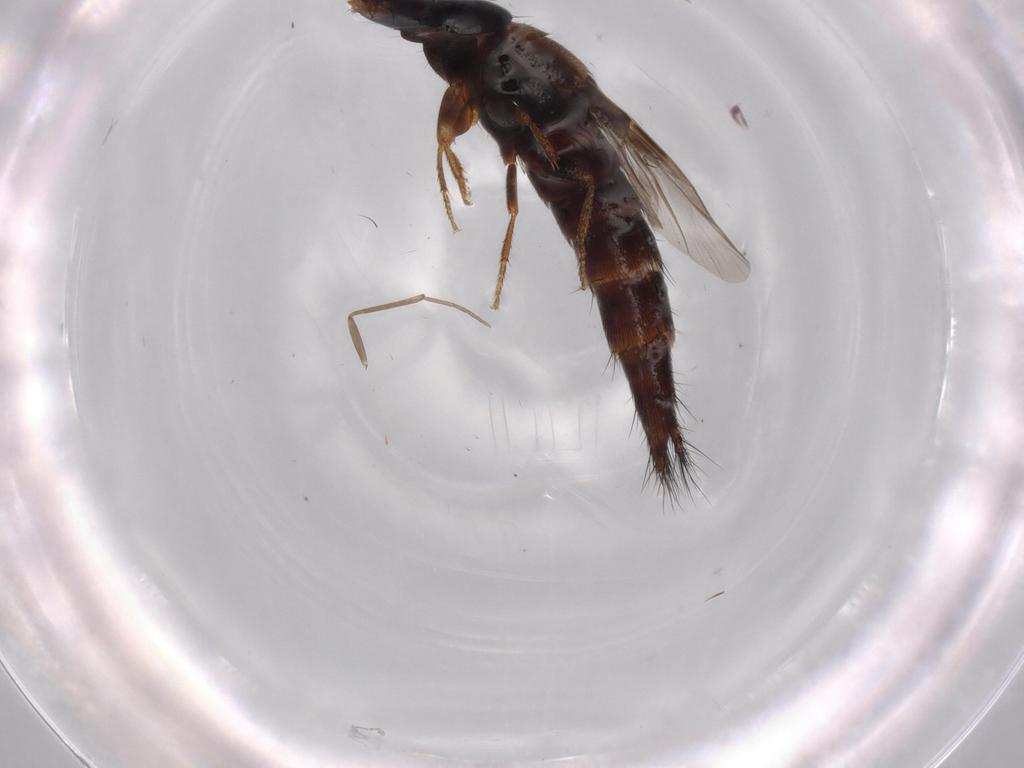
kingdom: Animalia
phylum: Arthropoda
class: Insecta
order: Coleoptera
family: Staphylinidae
